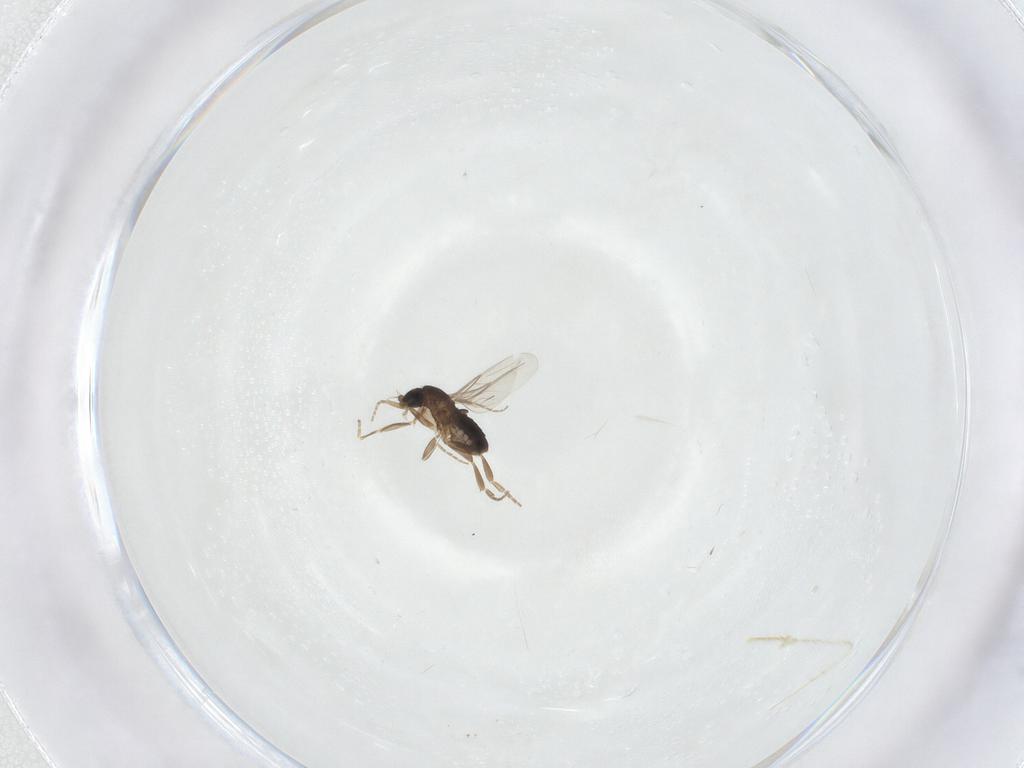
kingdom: Animalia
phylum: Arthropoda
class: Insecta
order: Diptera
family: Phoridae
